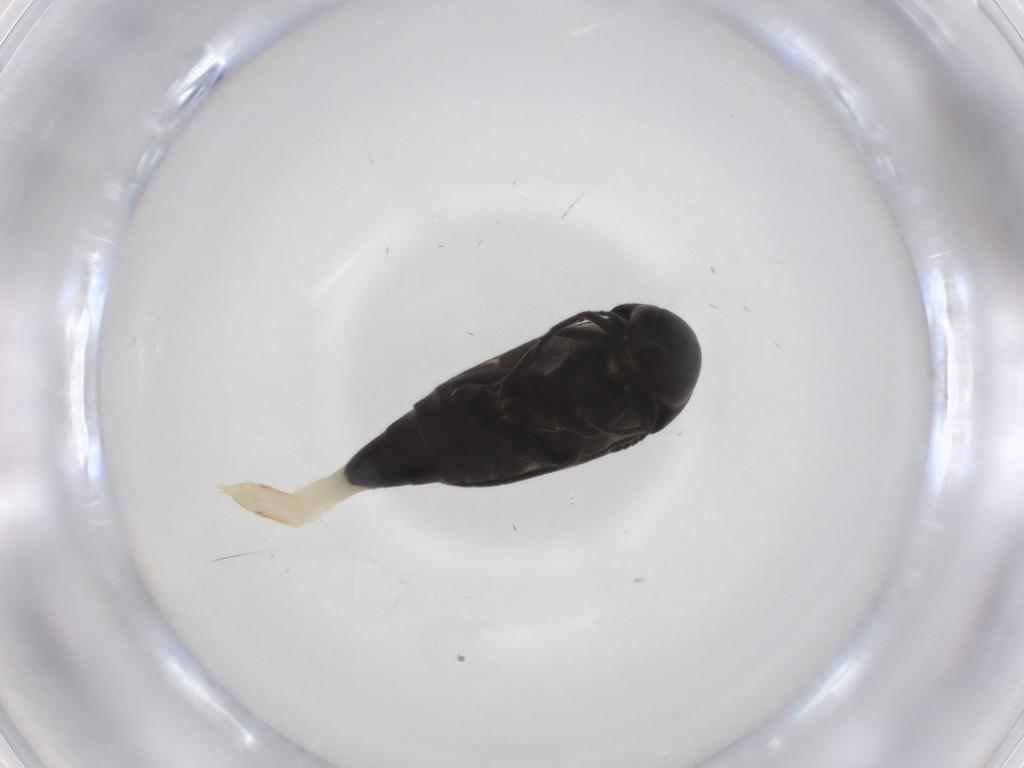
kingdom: Animalia
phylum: Arthropoda
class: Insecta
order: Coleoptera
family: Mordellidae
